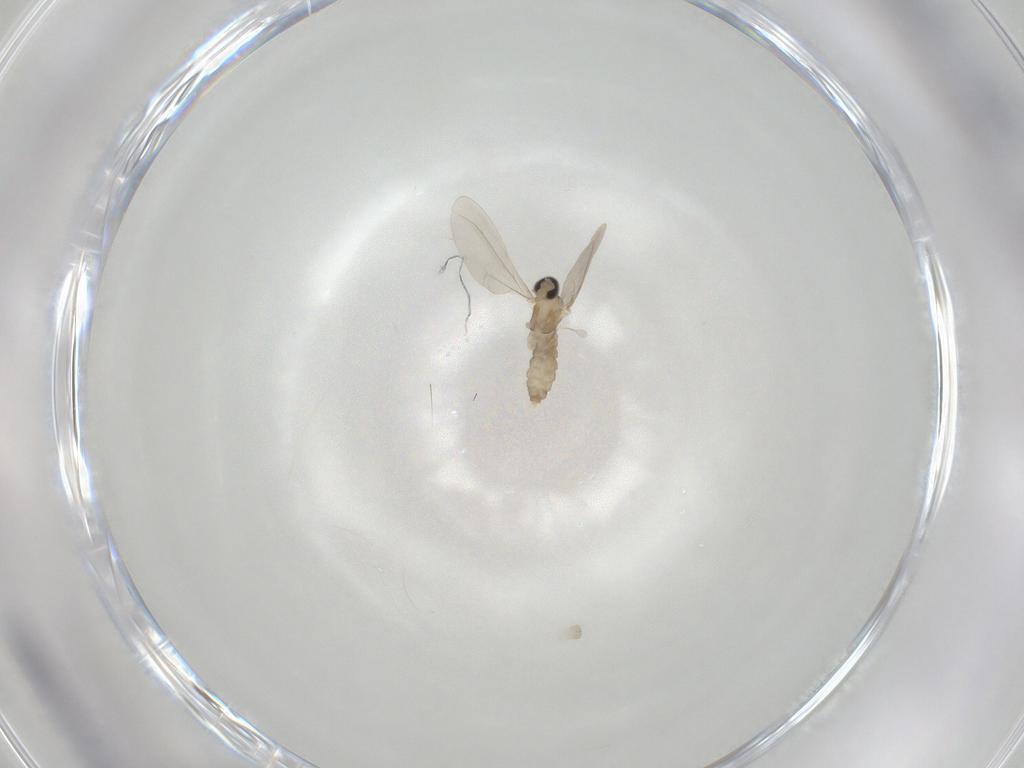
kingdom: Animalia
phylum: Arthropoda
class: Insecta
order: Diptera
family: Cecidomyiidae
